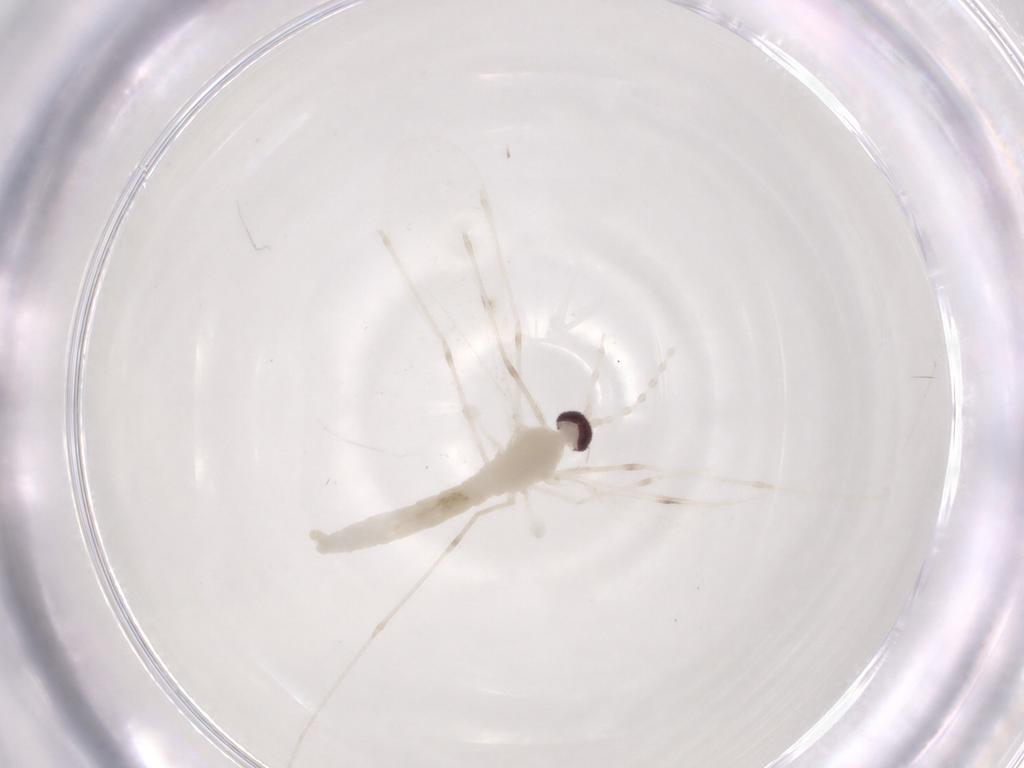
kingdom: Animalia
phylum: Arthropoda
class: Insecta
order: Diptera
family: Cecidomyiidae
